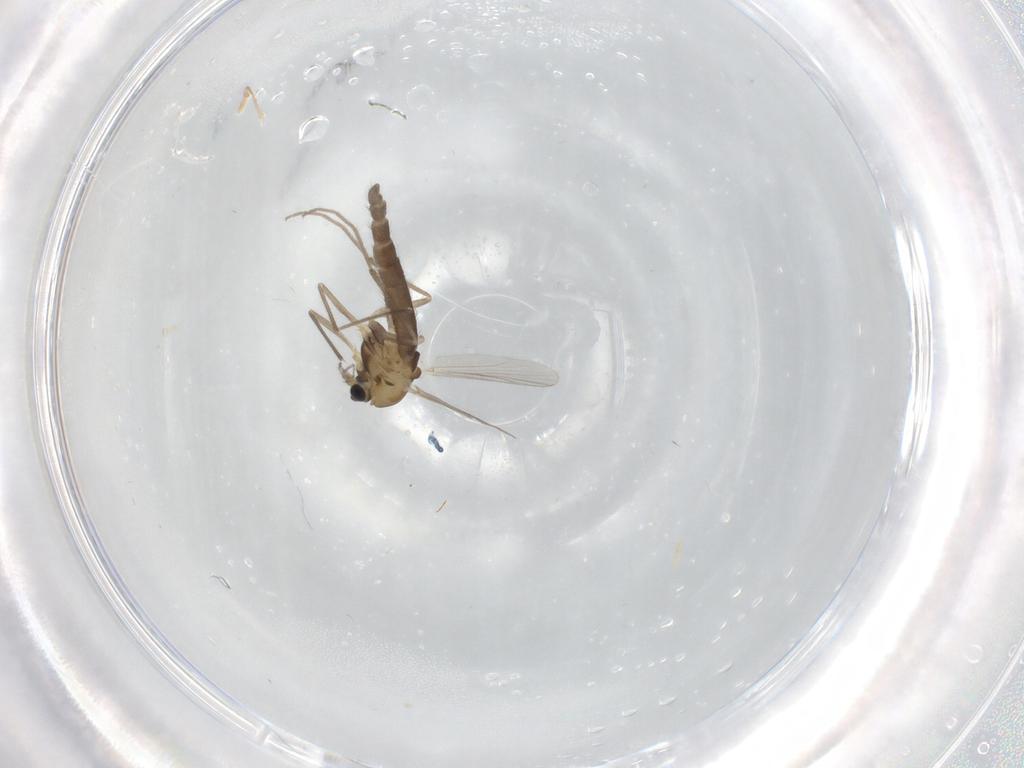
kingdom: Animalia
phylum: Arthropoda
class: Insecta
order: Diptera
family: Chironomidae
